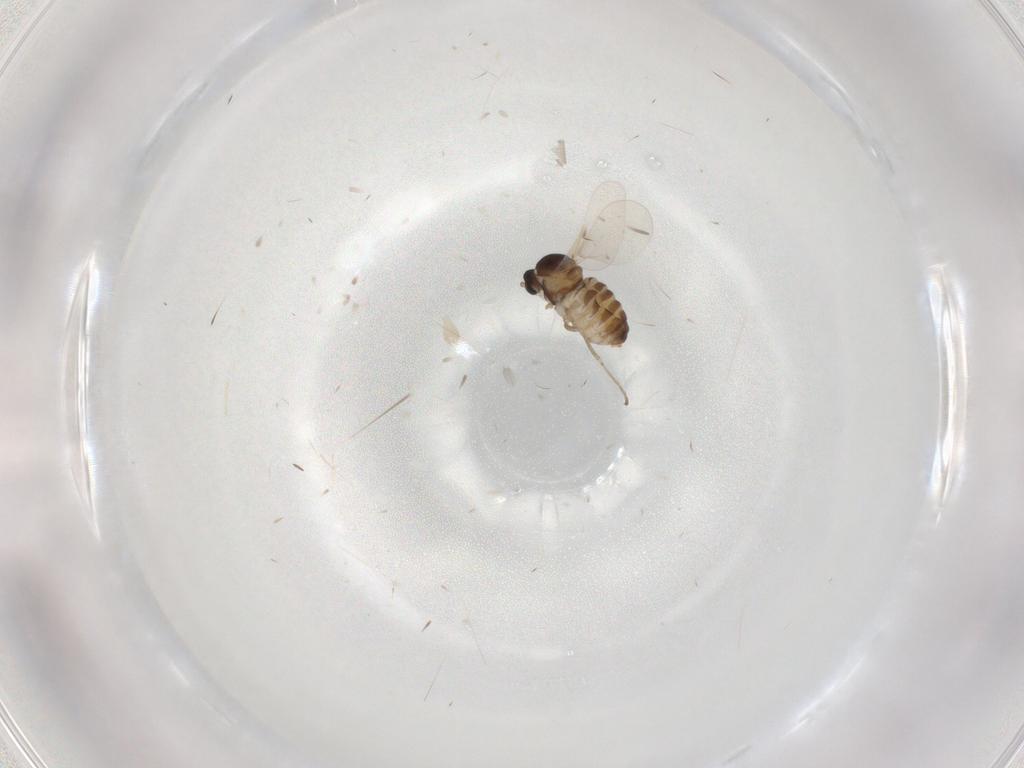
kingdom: Animalia
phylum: Arthropoda
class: Insecta
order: Diptera
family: Cecidomyiidae
